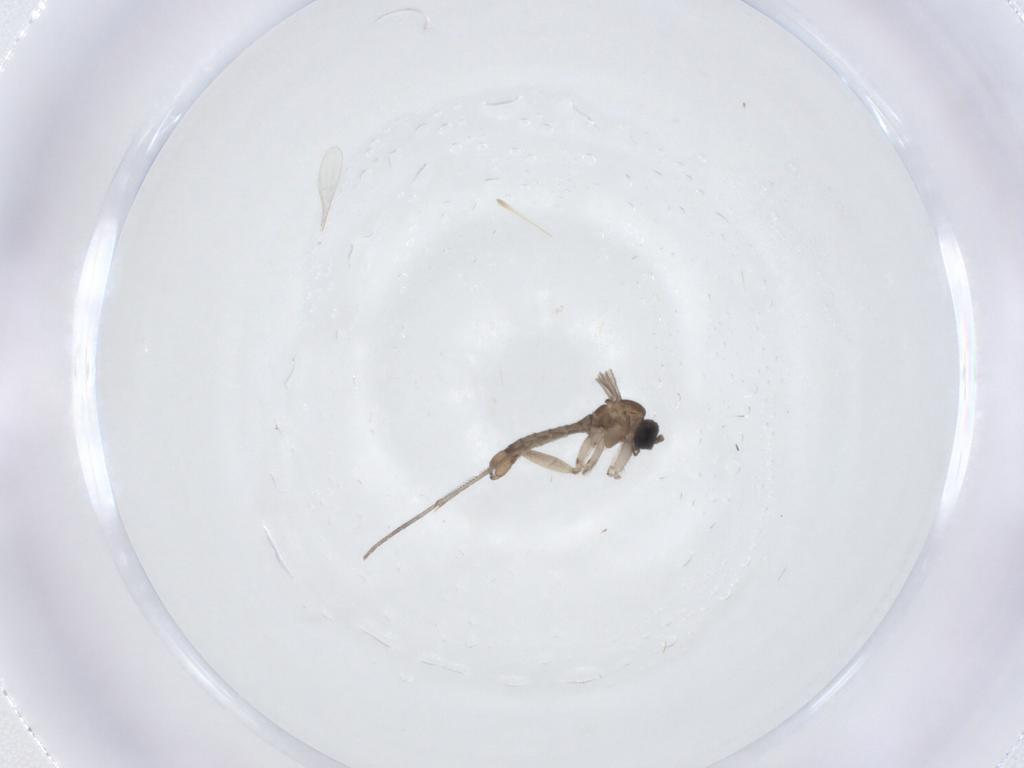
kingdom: Animalia
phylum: Arthropoda
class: Insecta
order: Diptera
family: Sciaridae
